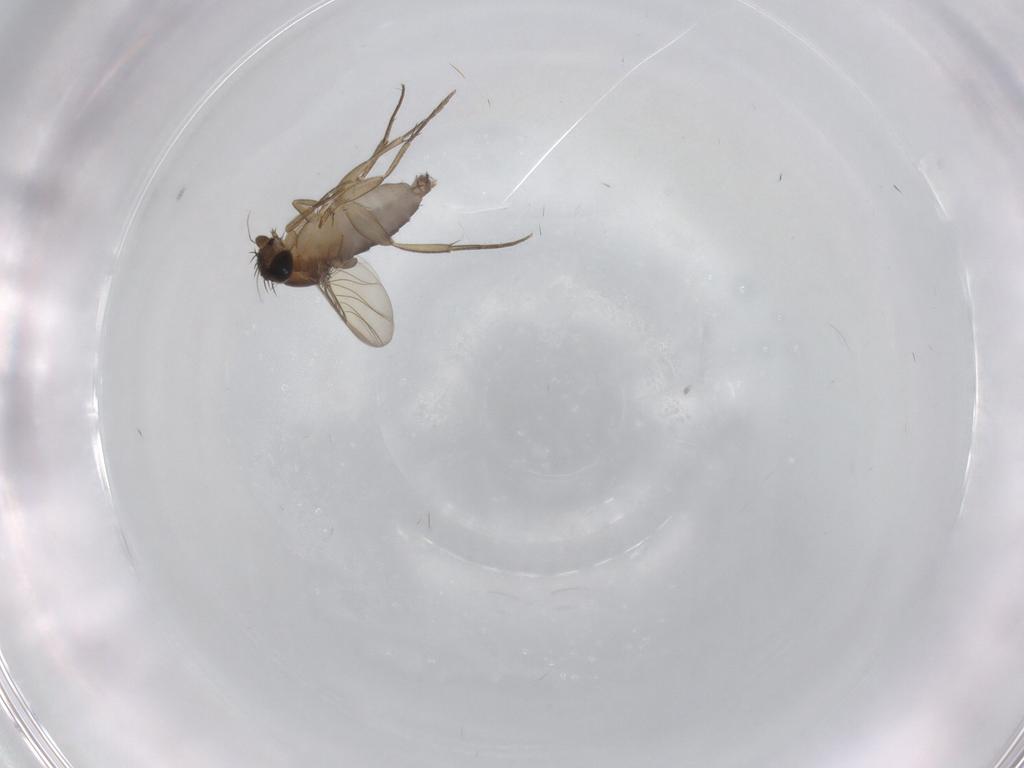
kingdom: Animalia
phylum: Arthropoda
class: Insecta
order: Diptera
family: Phoridae
